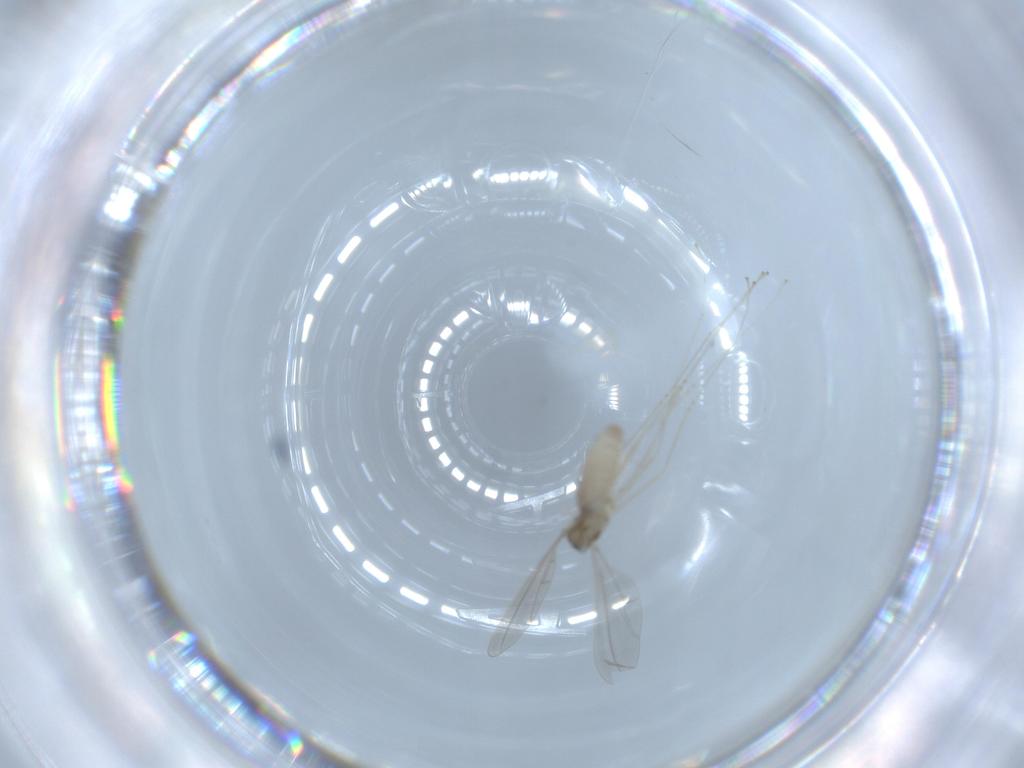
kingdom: Animalia
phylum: Arthropoda
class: Insecta
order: Diptera
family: Cecidomyiidae
